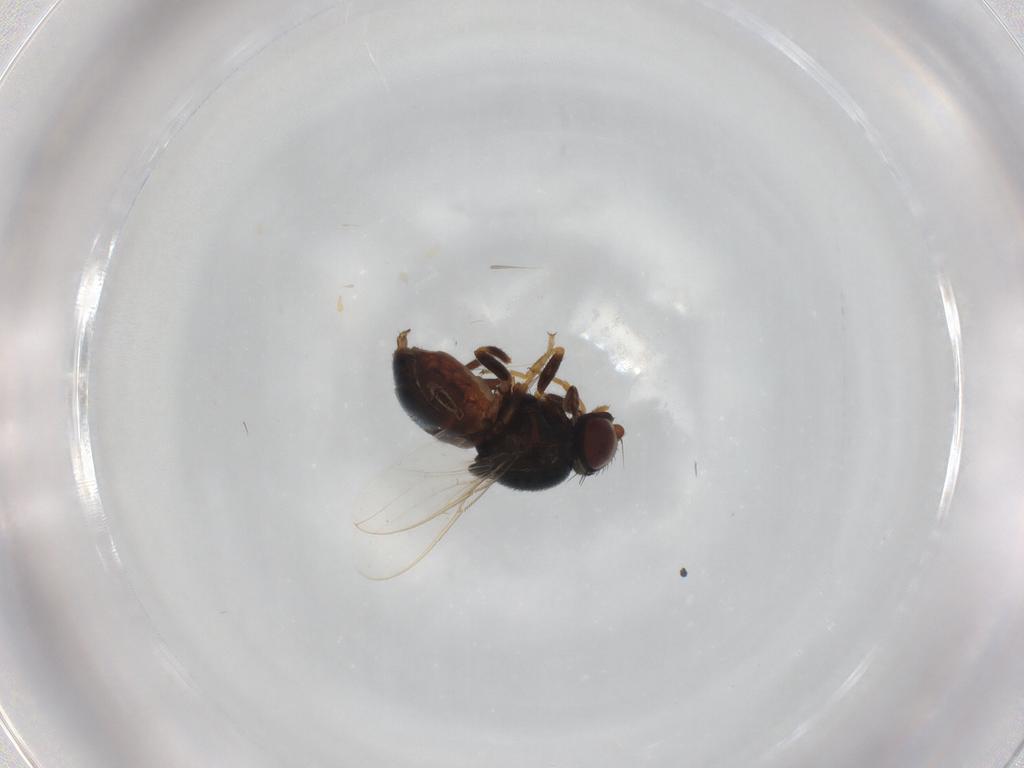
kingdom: Animalia
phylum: Arthropoda
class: Insecta
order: Diptera
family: Chloropidae
